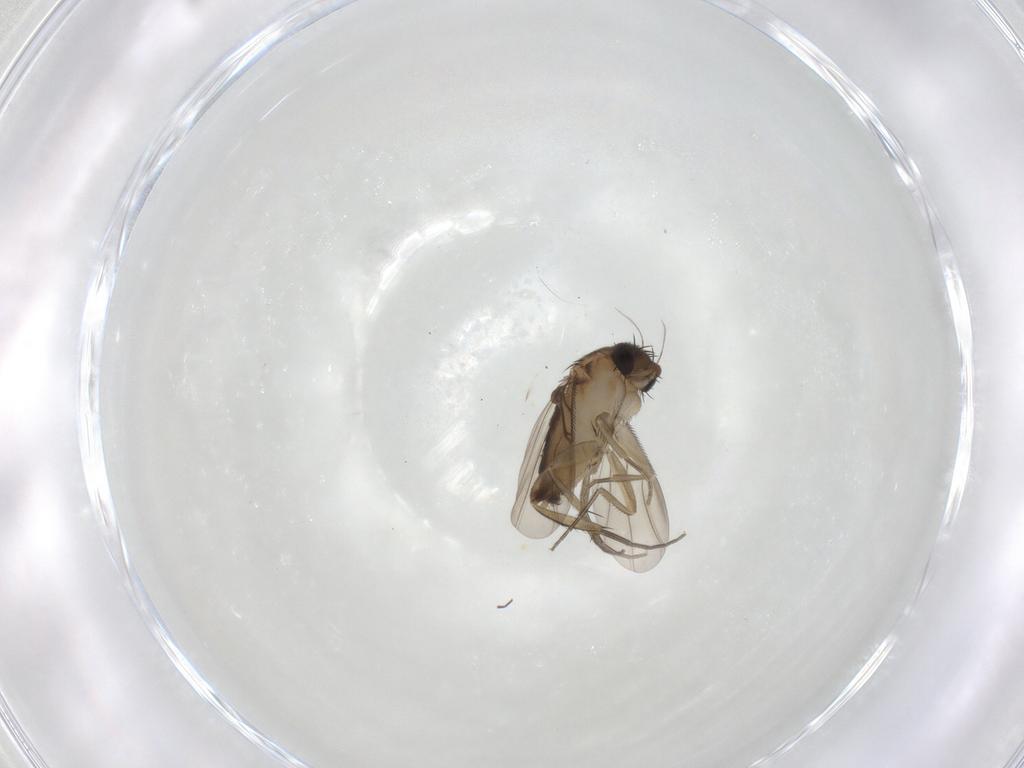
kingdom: Animalia
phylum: Arthropoda
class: Insecta
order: Diptera
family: Phoridae
